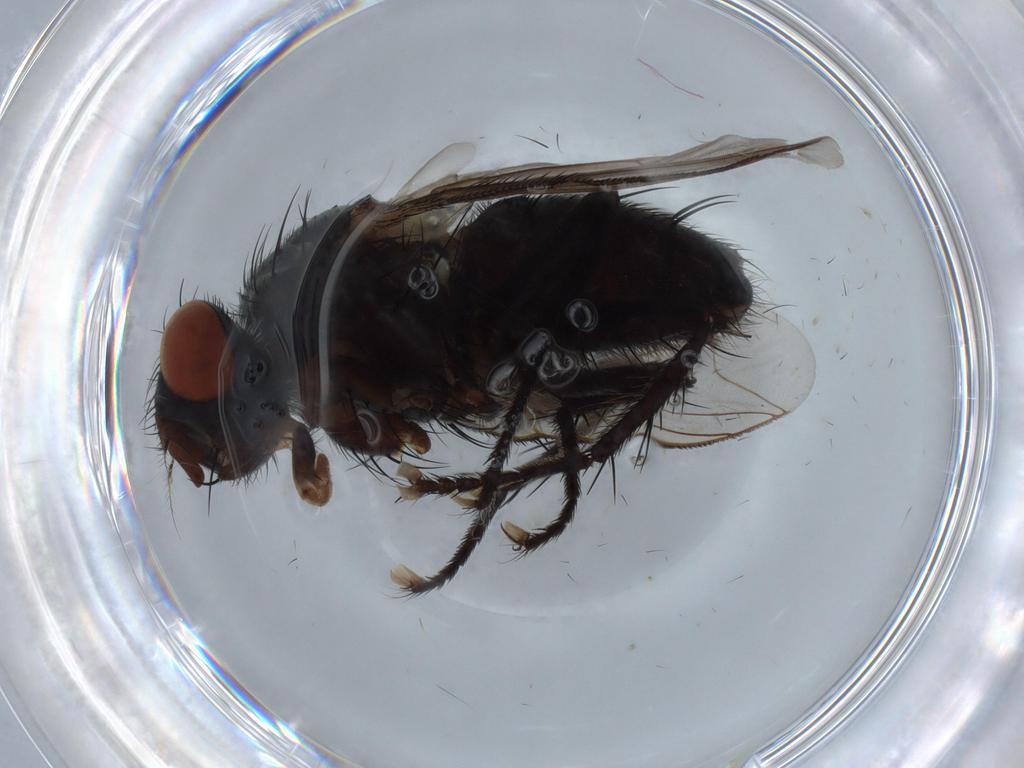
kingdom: Animalia
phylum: Arthropoda
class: Insecta
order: Diptera
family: Sarcophagidae
